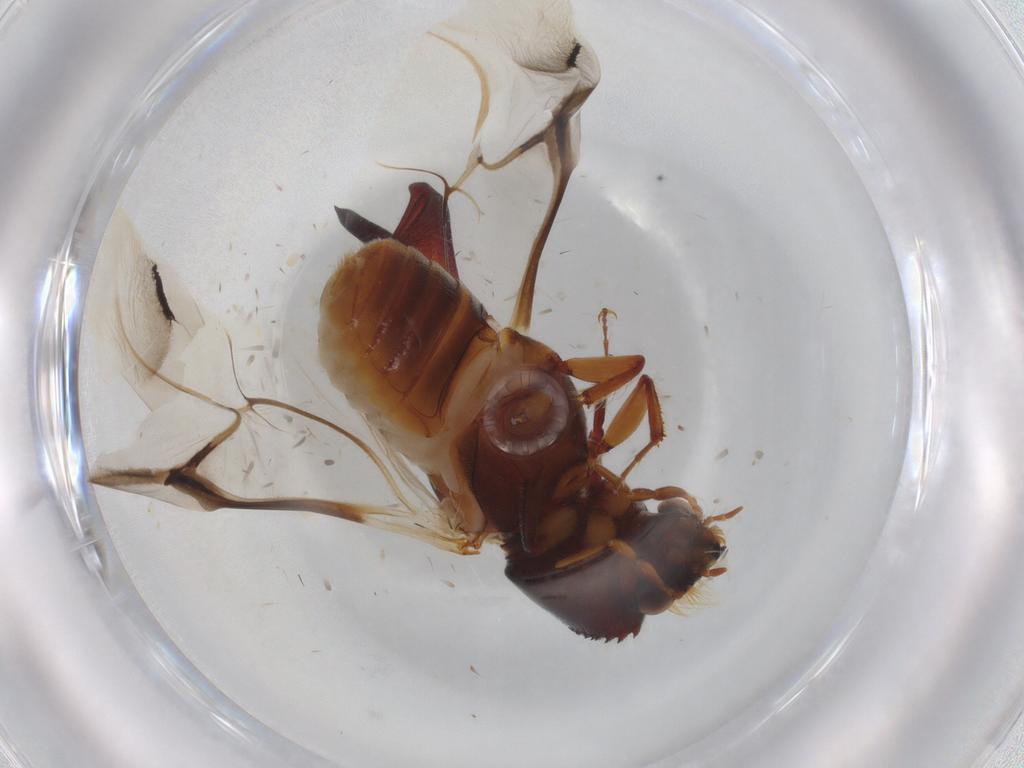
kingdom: Animalia
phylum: Arthropoda
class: Insecta
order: Coleoptera
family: Bostrichidae
